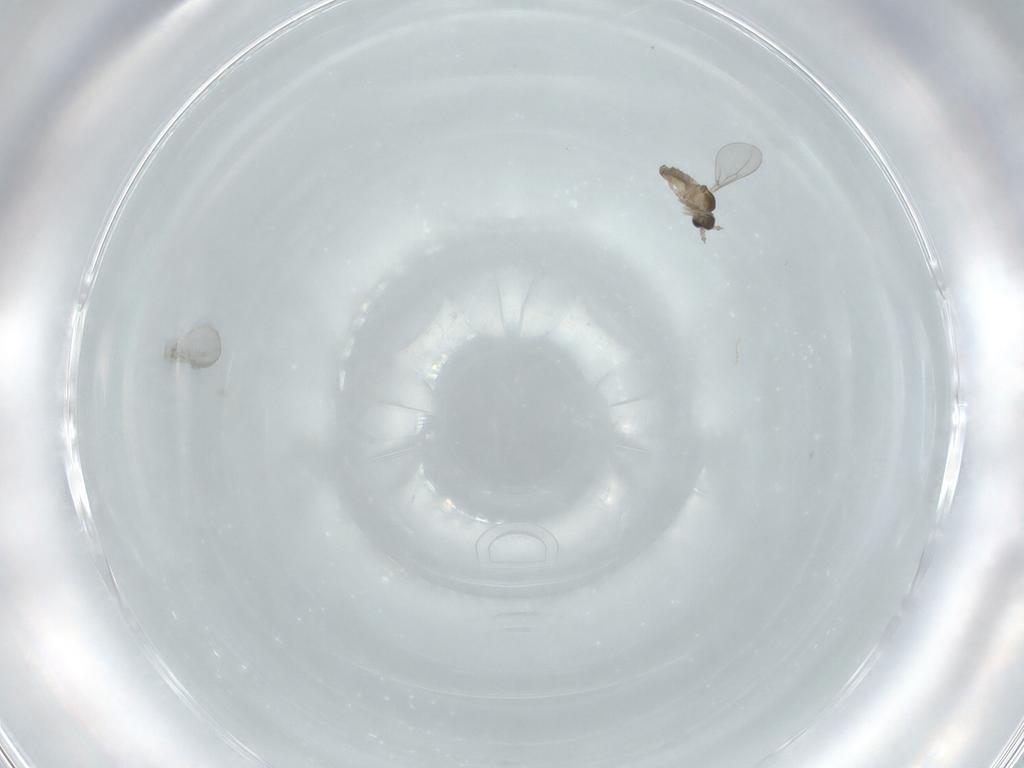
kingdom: Animalia
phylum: Arthropoda
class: Insecta
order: Diptera
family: Cecidomyiidae
